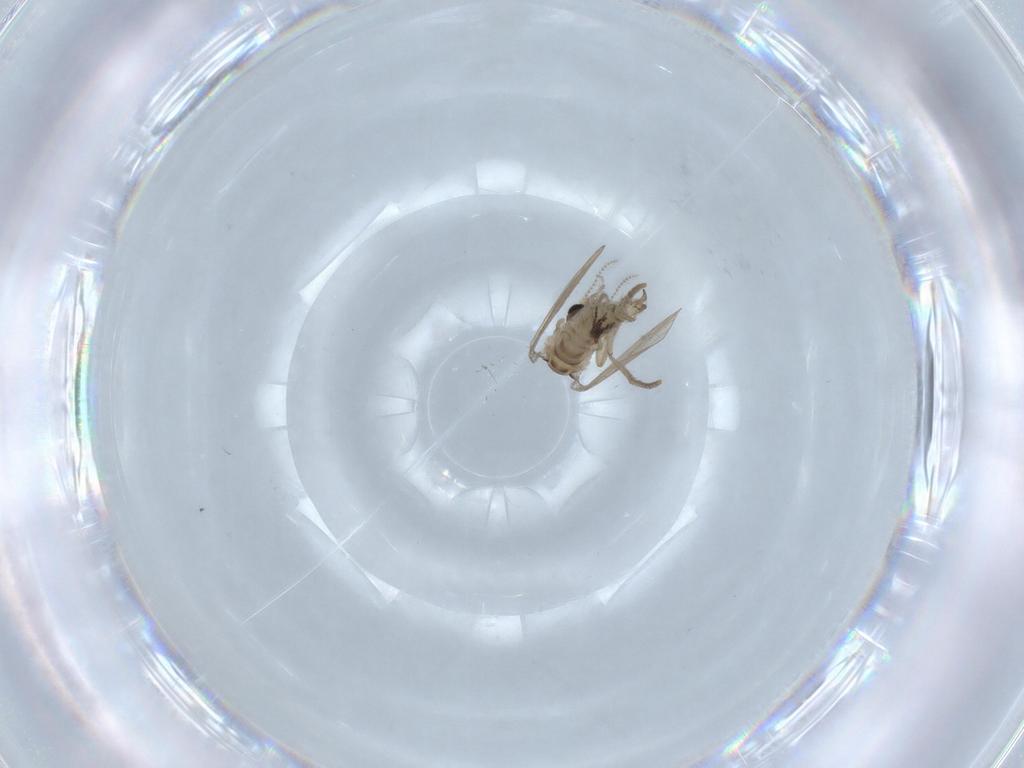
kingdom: Animalia
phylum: Arthropoda
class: Insecta
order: Diptera
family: Psychodidae
